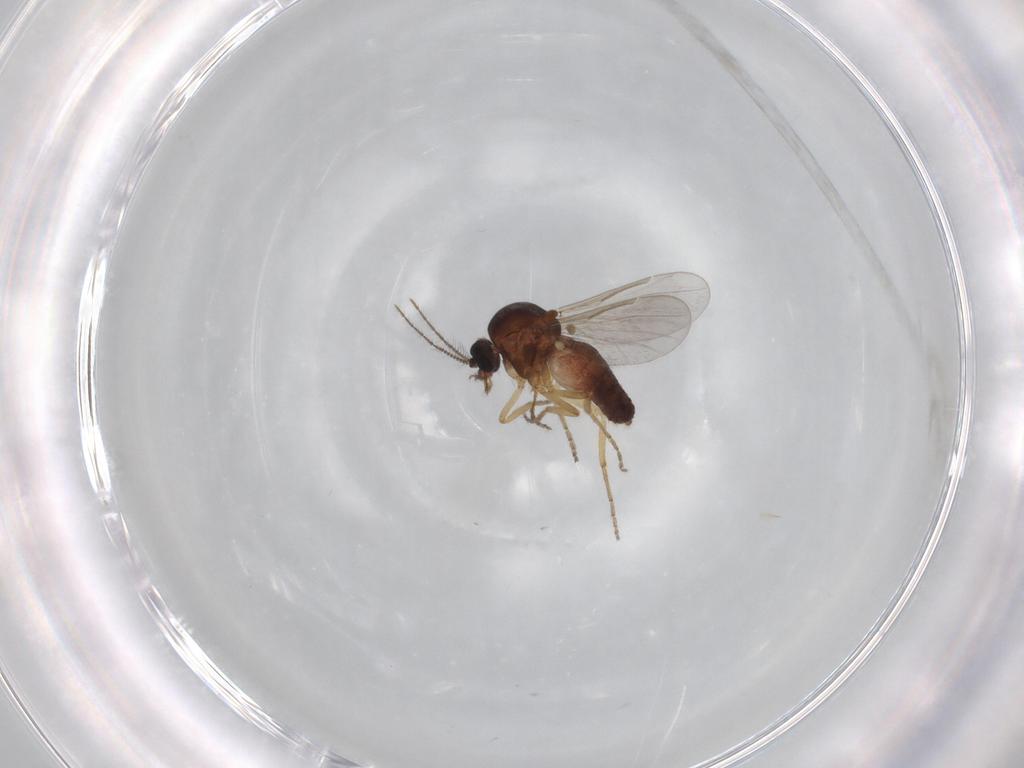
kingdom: Animalia
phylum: Arthropoda
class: Insecta
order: Diptera
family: Ceratopogonidae
